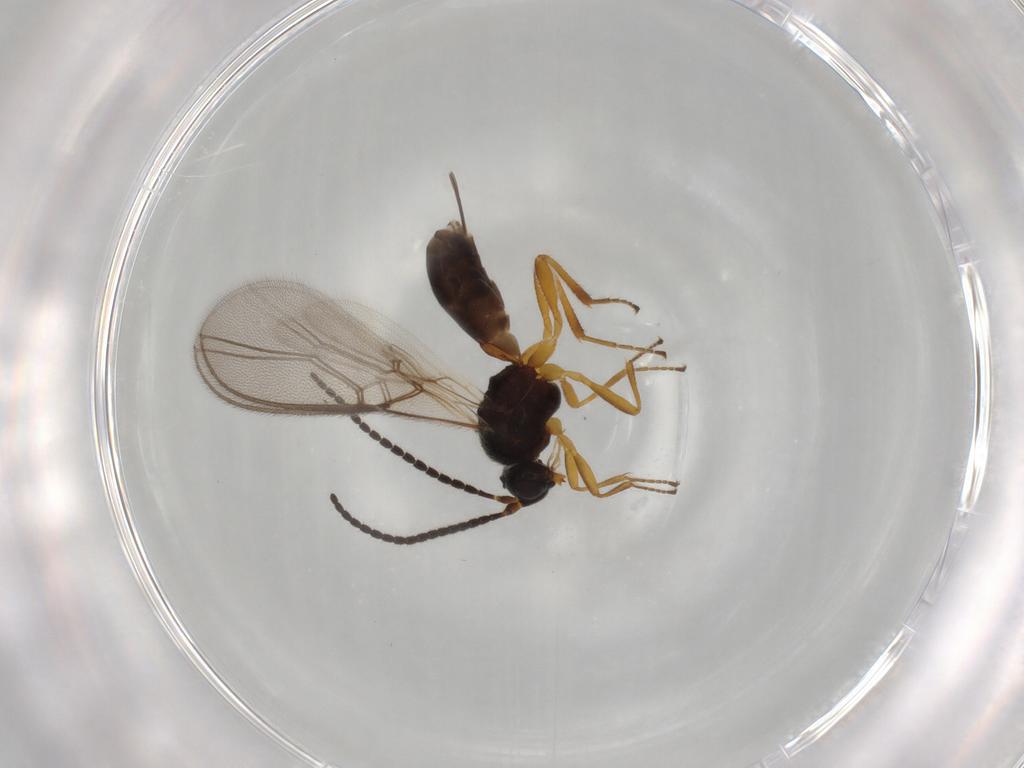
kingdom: Animalia
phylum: Arthropoda
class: Insecta
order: Hymenoptera
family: Braconidae
